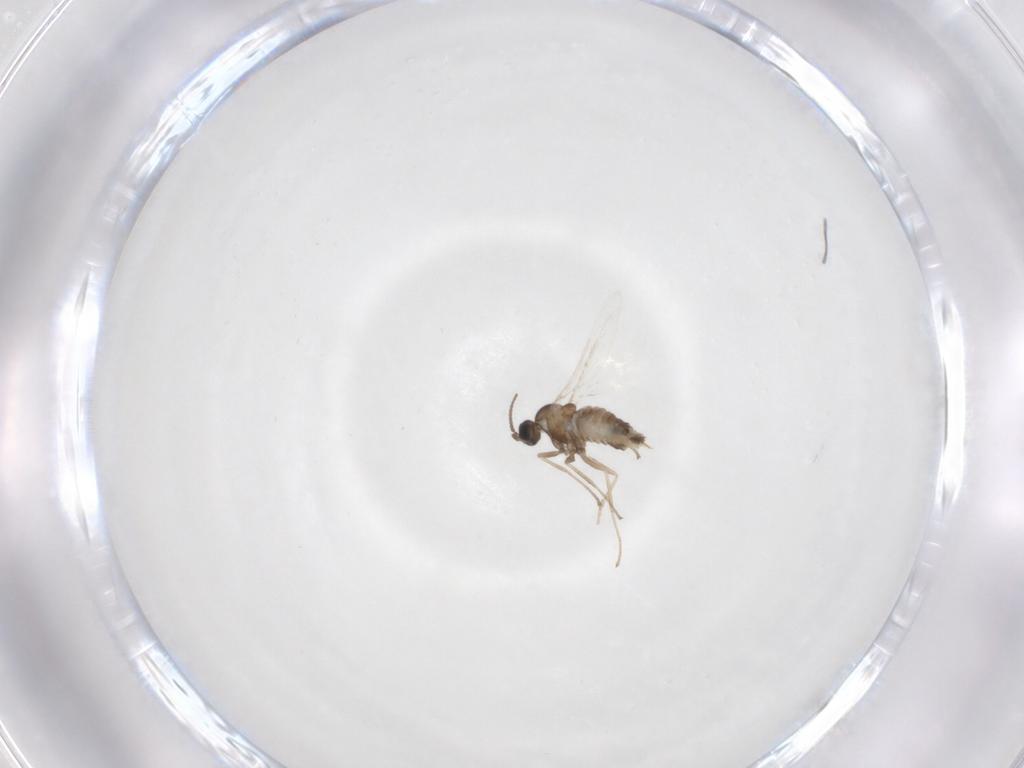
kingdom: Animalia
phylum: Arthropoda
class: Insecta
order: Diptera
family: Cecidomyiidae
